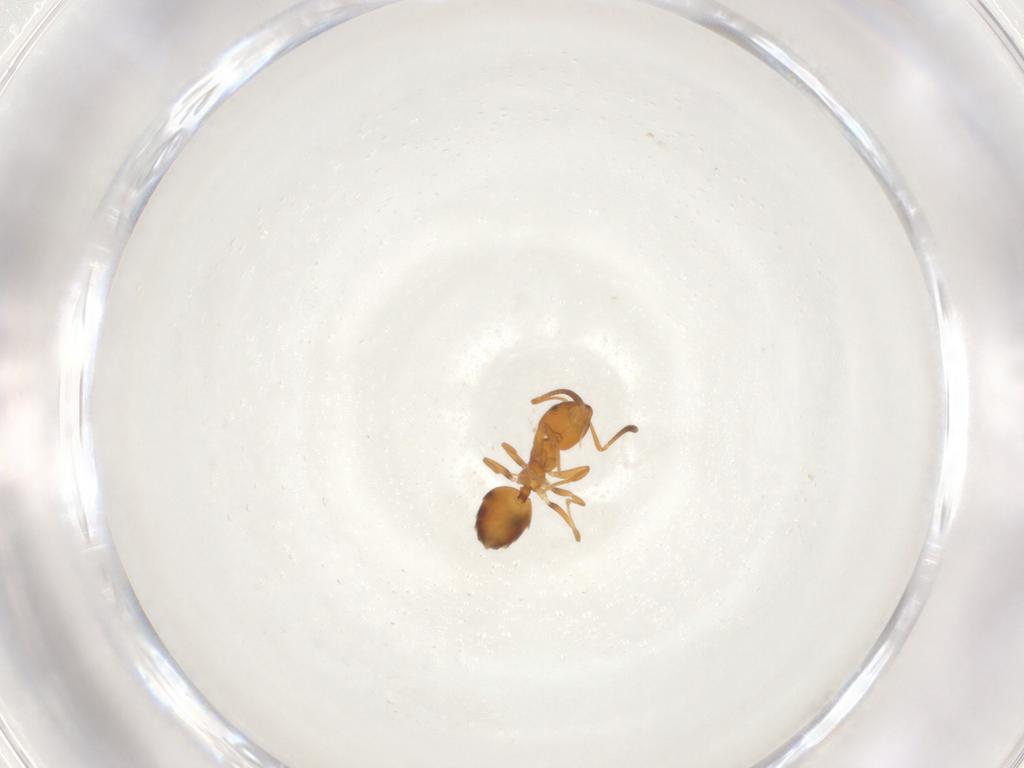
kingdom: Animalia
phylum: Arthropoda
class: Insecta
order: Hymenoptera
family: Formicidae
